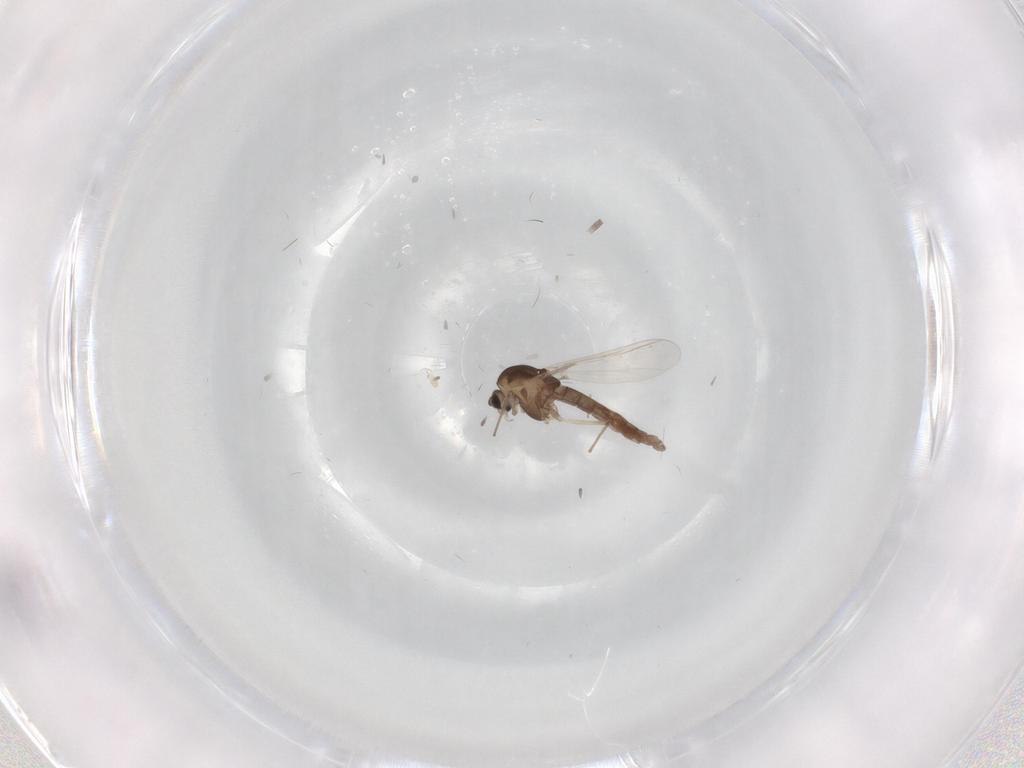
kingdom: Animalia
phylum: Arthropoda
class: Insecta
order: Diptera
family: Chironomidae
